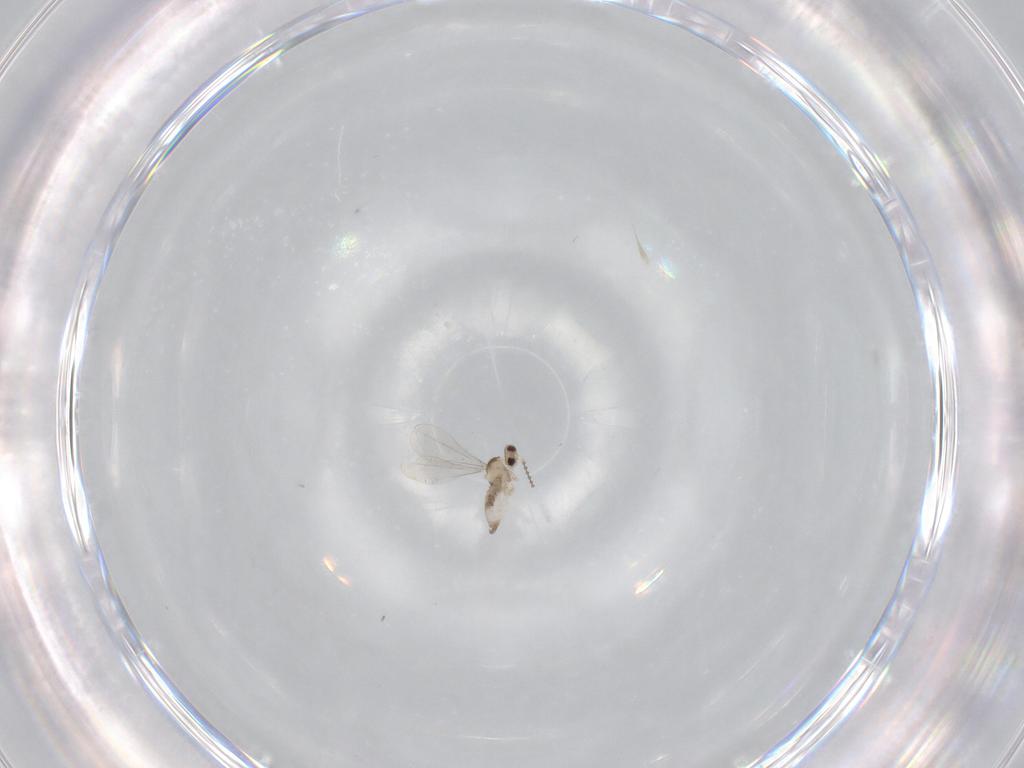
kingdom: Animalia
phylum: Arthropoda
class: Insecta
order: Diptera
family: Cecidomyiidae
